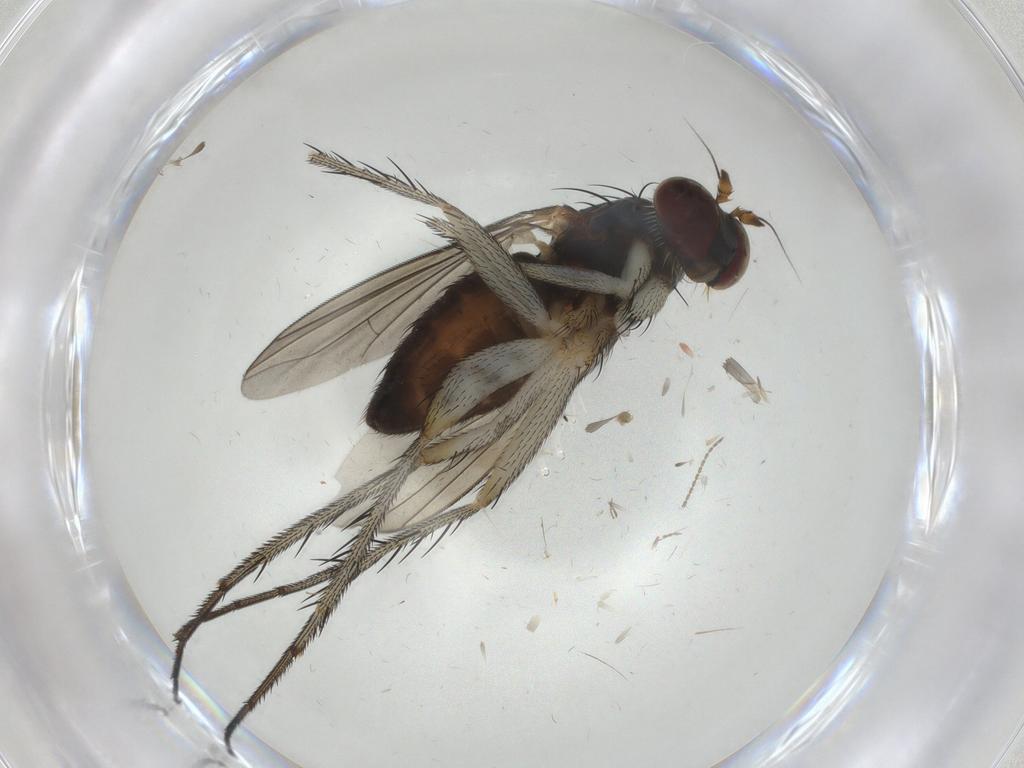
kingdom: Animalia
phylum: Arthropoda
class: Insecta
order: Diptera
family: Dolichopodidae
